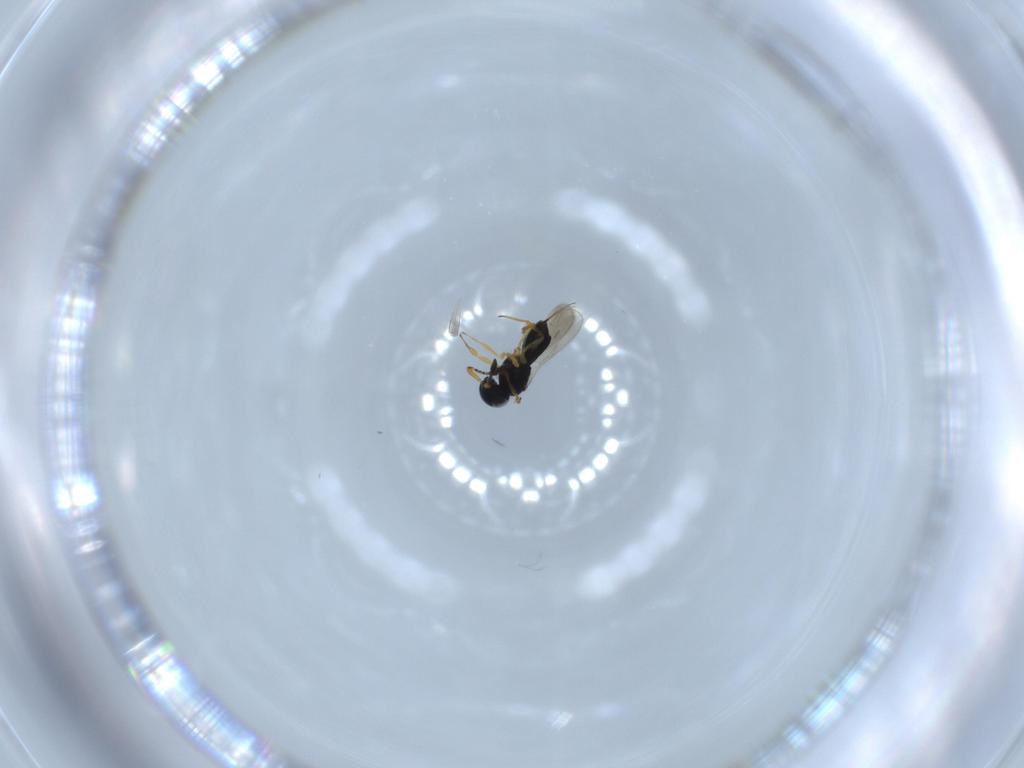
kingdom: Animalia
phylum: Arthropoda
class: Insecta
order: Hymenoptera
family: Scelionidae
